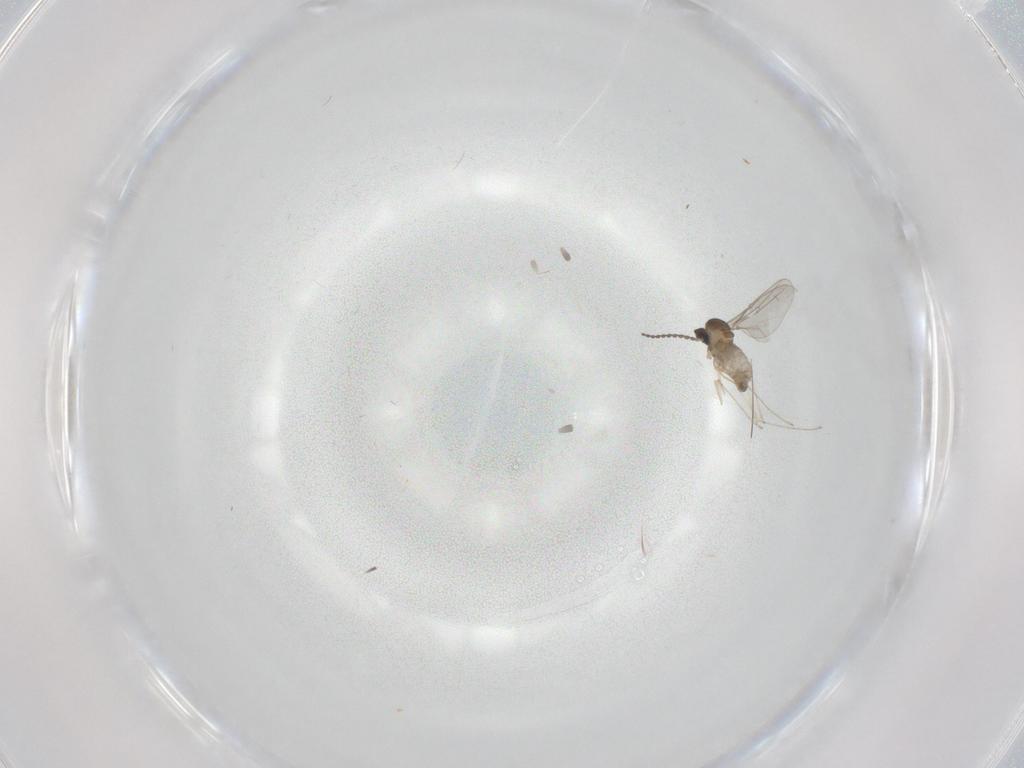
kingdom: Animalia
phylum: Arthropoda
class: Insecta
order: Diptera
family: Cecidomyiidae
